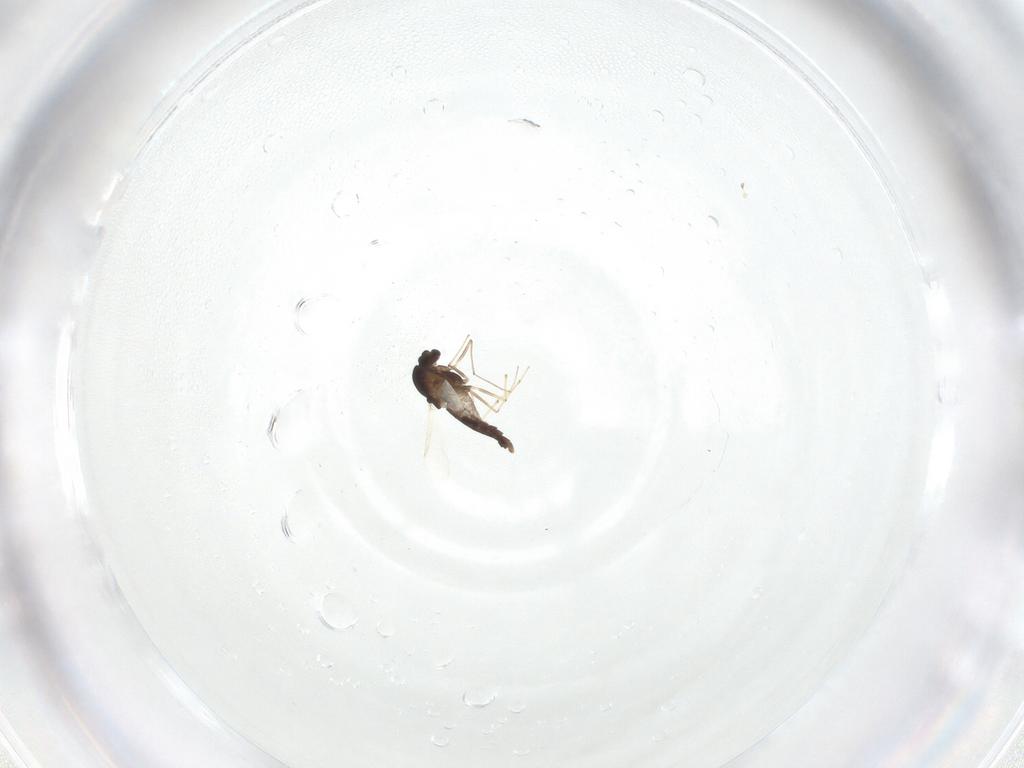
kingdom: Animalia
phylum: Arthropoda
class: Insecta
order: Diptera
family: Chironomidae
